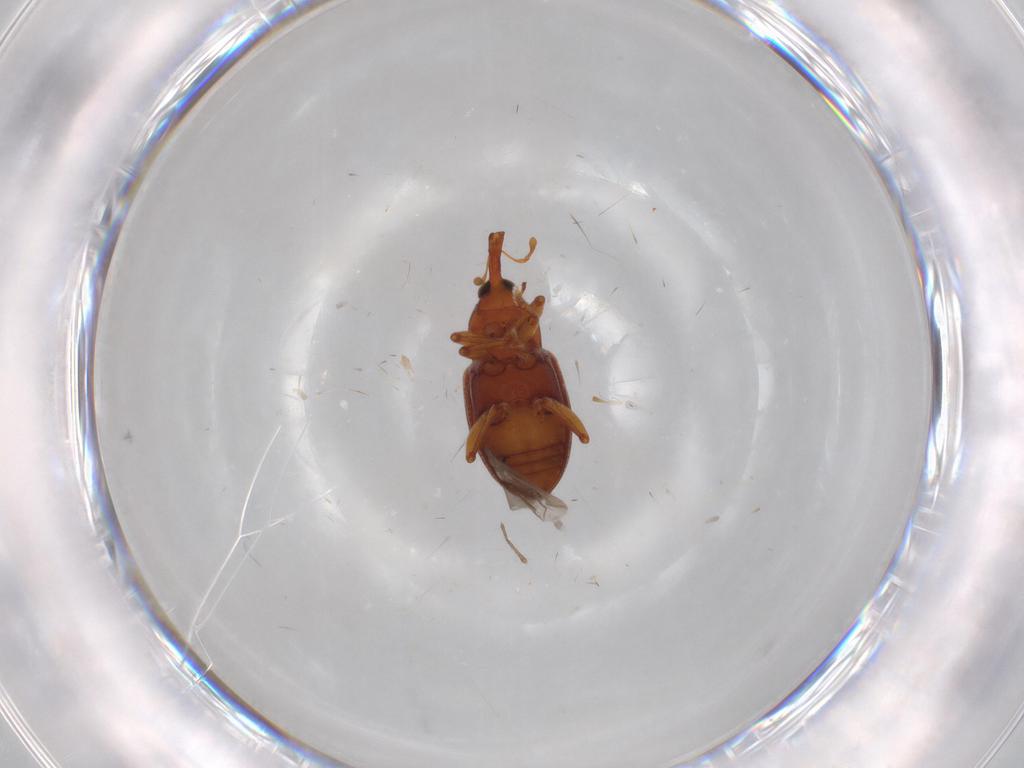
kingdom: Animalia
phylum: Arthropoda
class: Insecta
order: Coleoptera
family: Curculionidae
